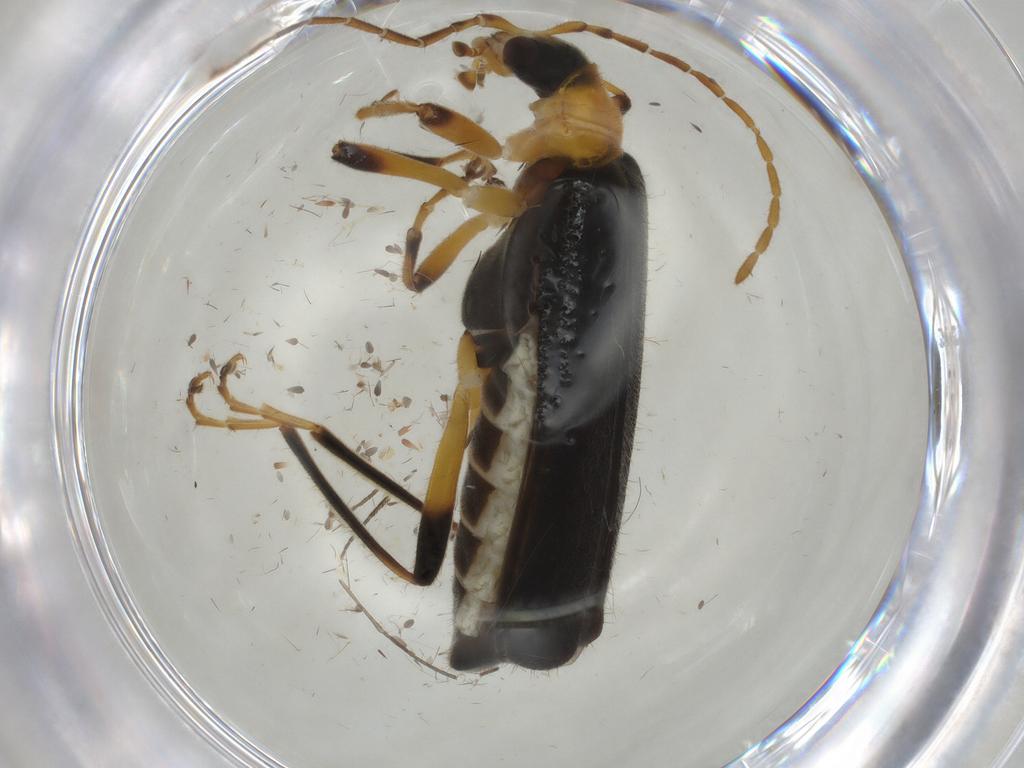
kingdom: Animalia
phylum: Arthropoda
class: Insecta
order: Coleoptera
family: Cantharidae
